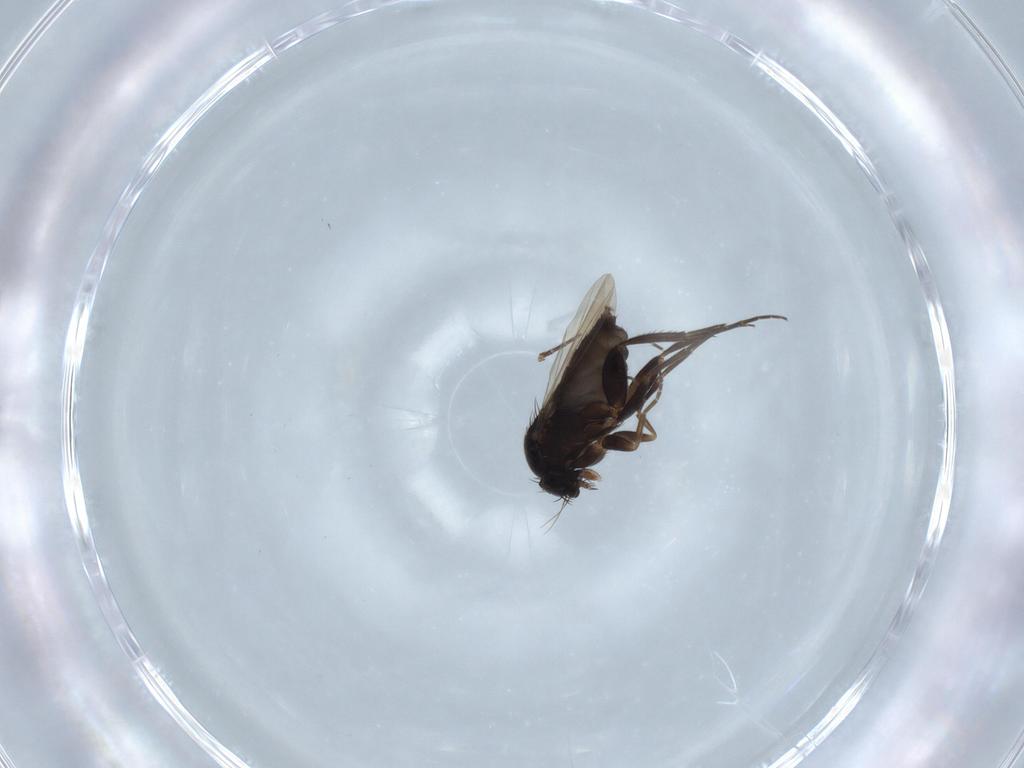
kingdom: Animalia
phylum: Arthropoda
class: Insecta
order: Diptera
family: Phoridae
